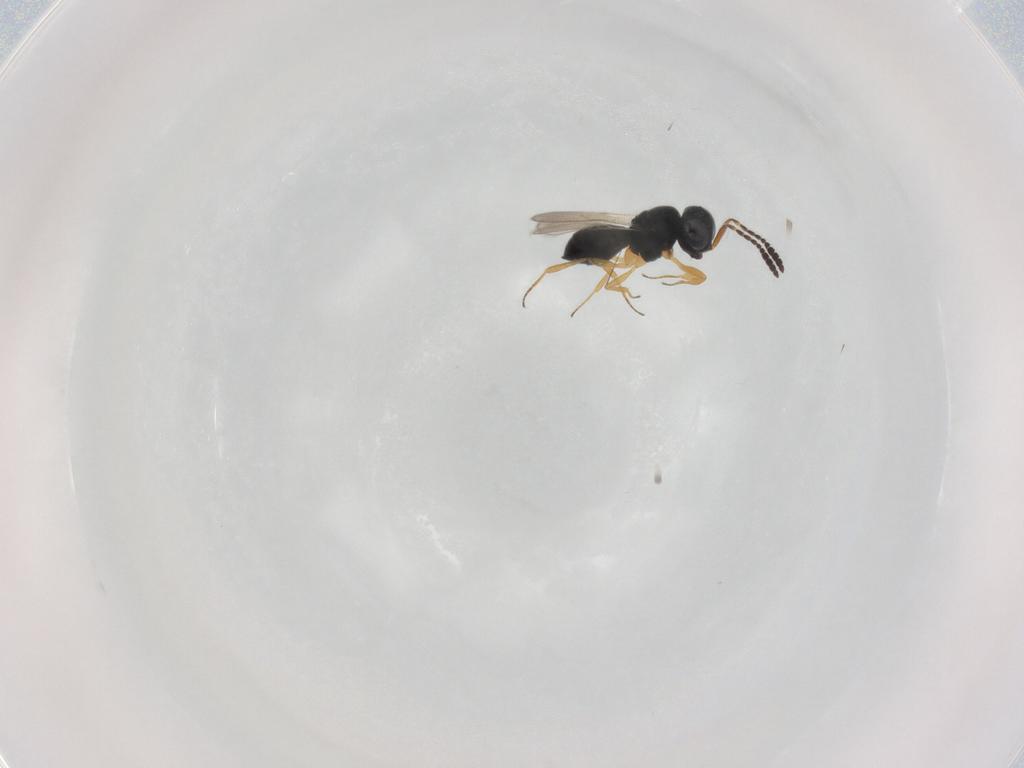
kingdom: Animalia
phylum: Arthropoda
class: Insecta
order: Hymenoptera
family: Scelionidae
